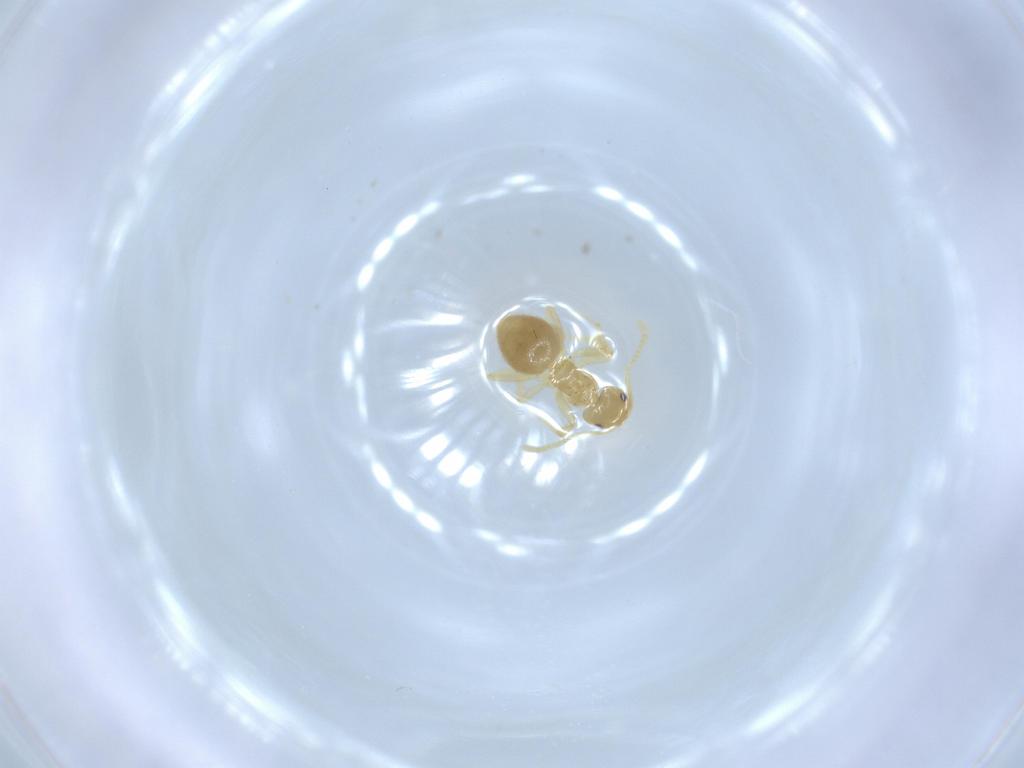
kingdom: Animalia
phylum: Arthropoda
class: Insecta
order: Hymenoptera
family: Formicidae
